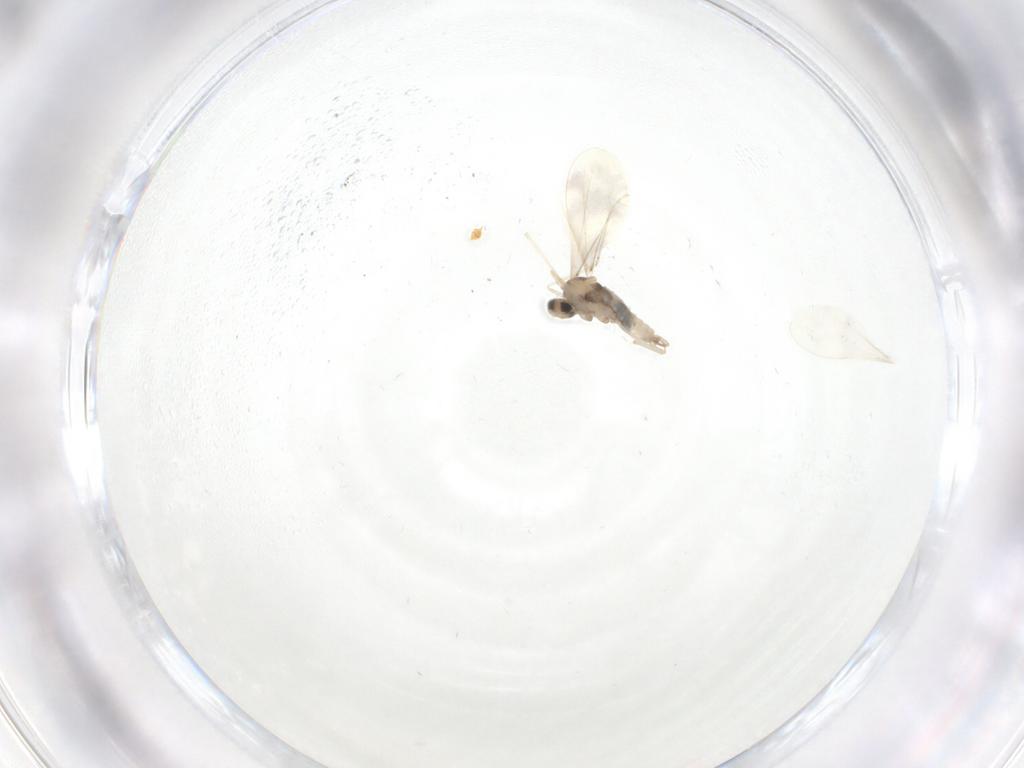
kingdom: Animalia
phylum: Arthropoda
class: Insecta
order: Diptera
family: Cecidomyiidae
